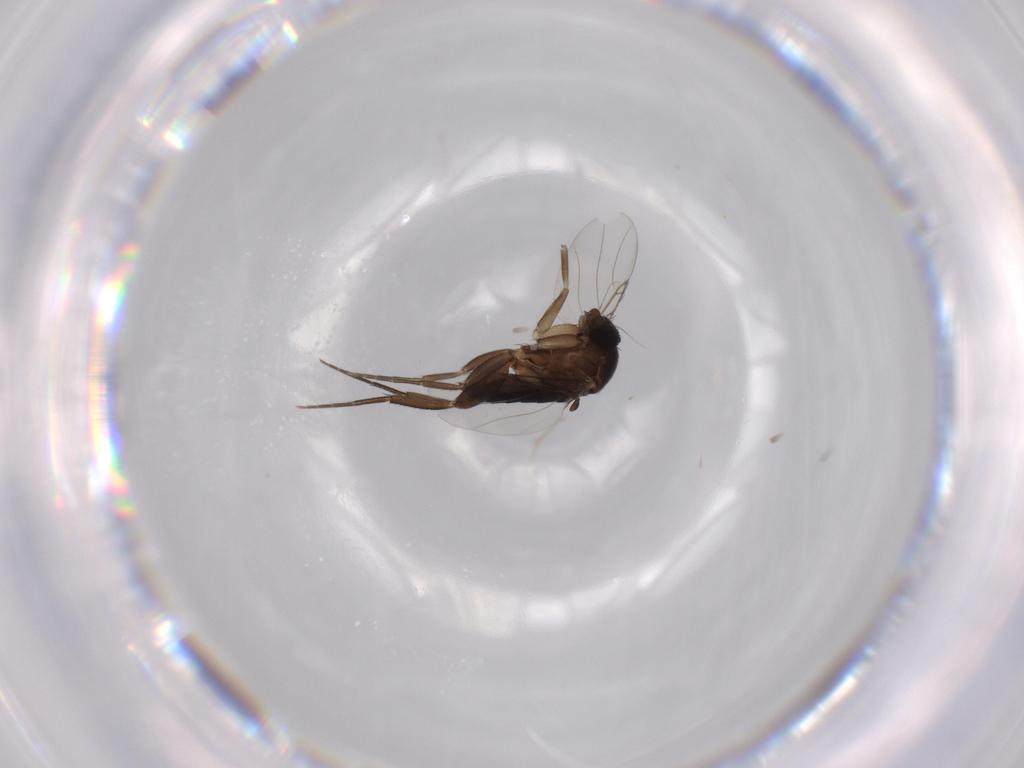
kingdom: Animalia
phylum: Arthropoda
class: Insecta
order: Diptera
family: Phoridae
